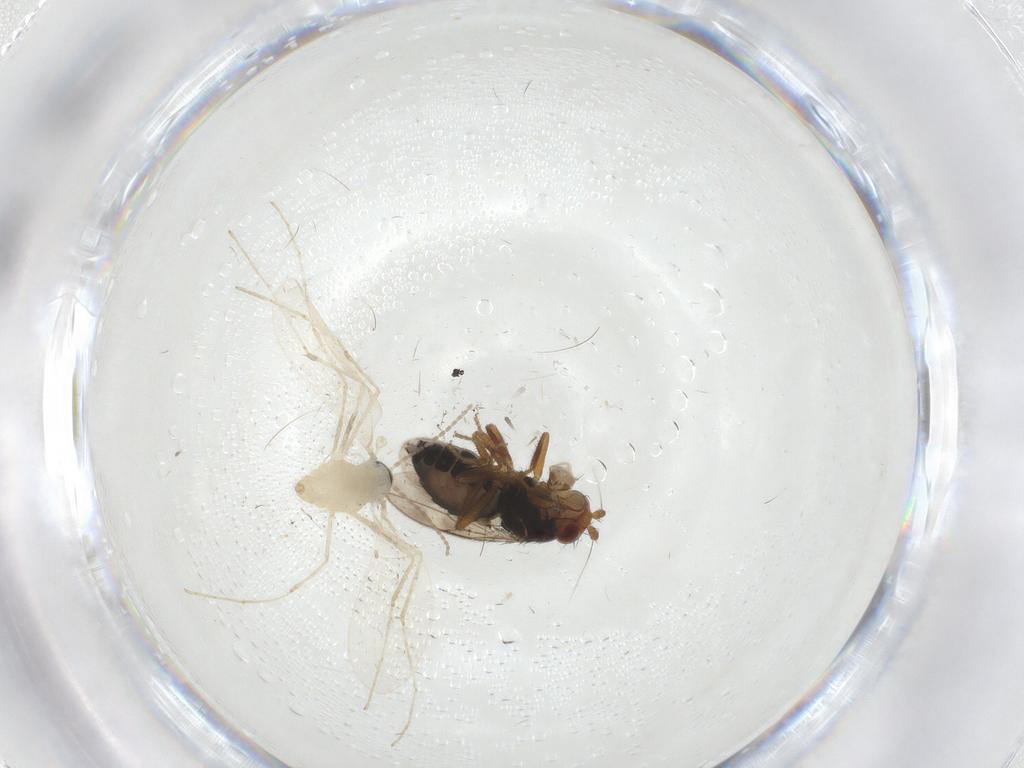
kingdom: Animalia
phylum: Arthropoda
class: Insecta
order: Diptera
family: Sphaeroceridae
